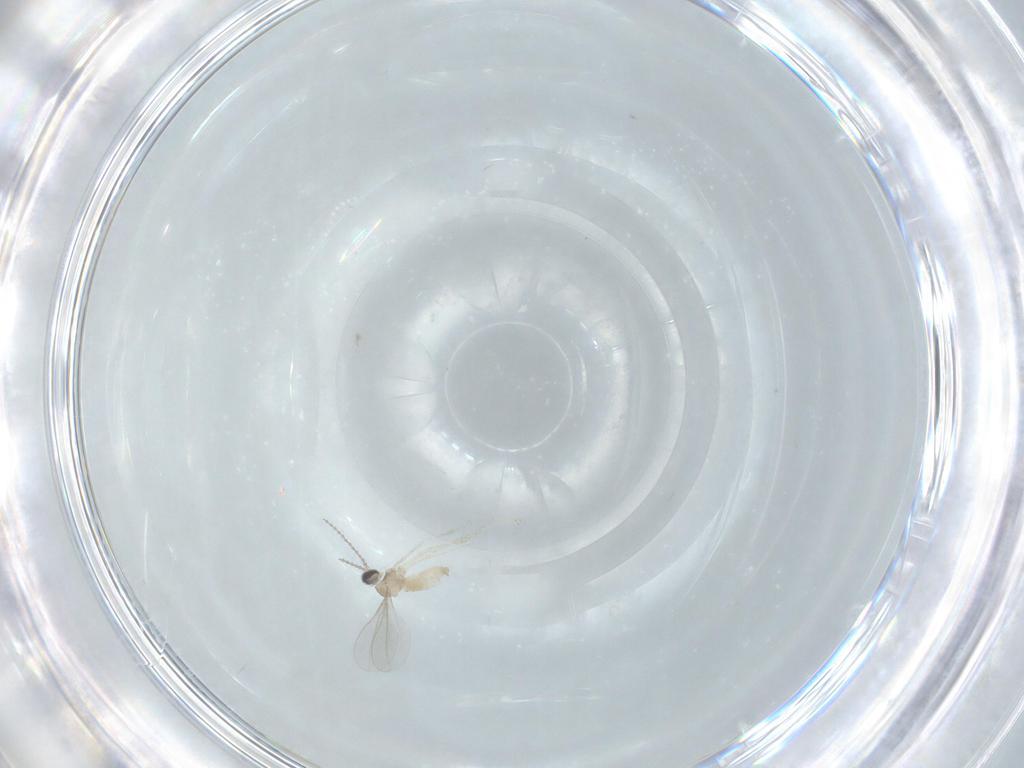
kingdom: Animalia
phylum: Arthropoda
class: Insecta
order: Diptera
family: Ceratopogonidae
